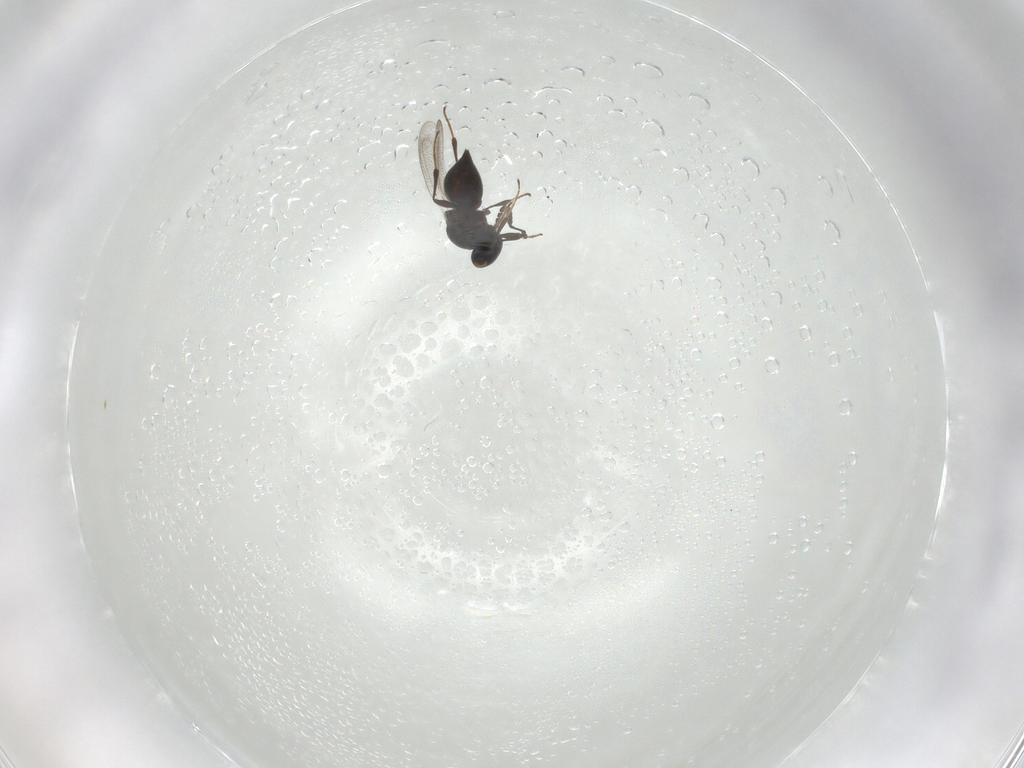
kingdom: Animalia
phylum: Arthropoda
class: Insecta
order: Hymenoptera
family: Platygastridae
